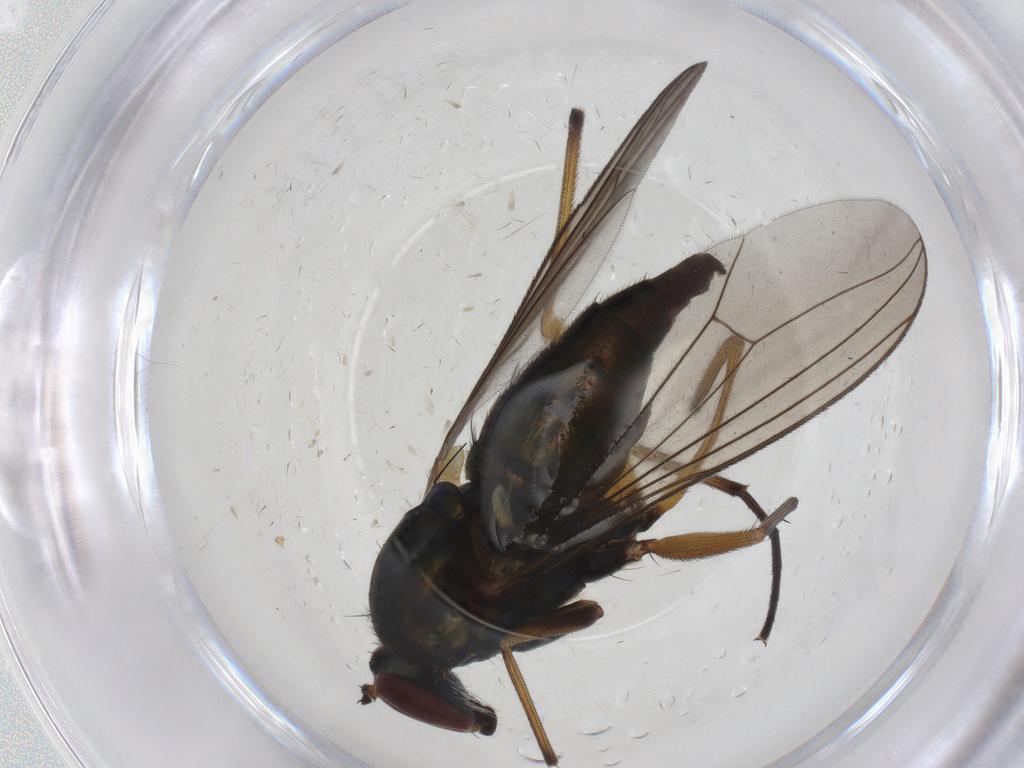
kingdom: Animalia
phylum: Arthropoda
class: Insecta
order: Diptera
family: Psychodidae
